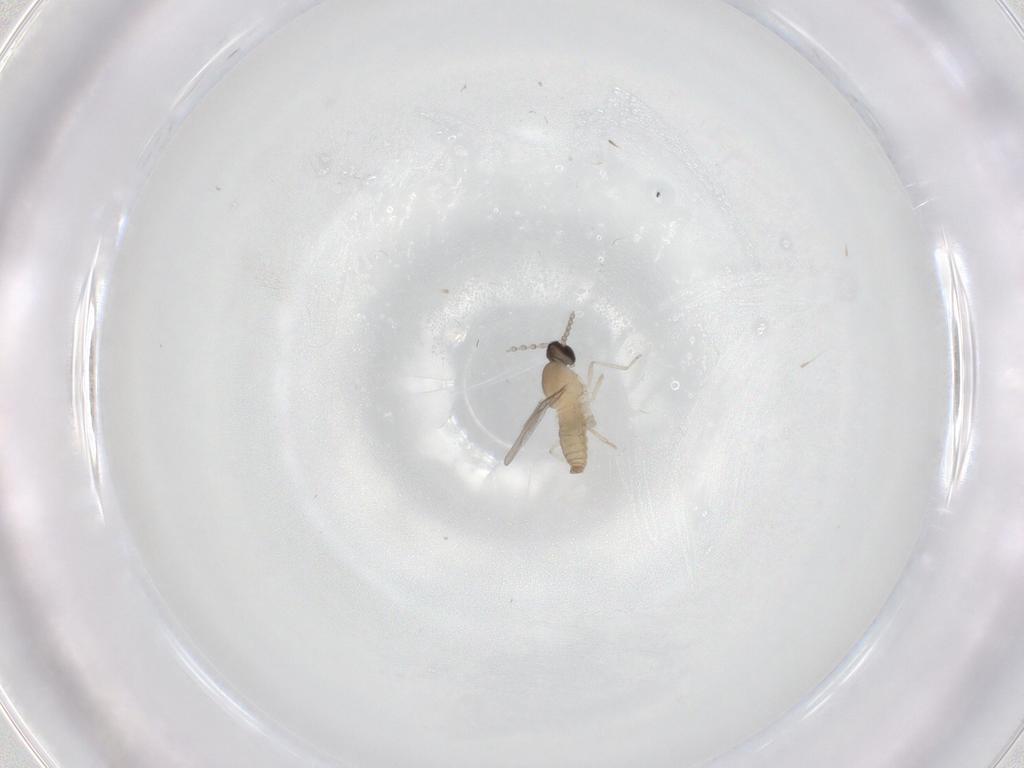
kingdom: Animalia
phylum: Arthropoda
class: Insecta
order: Diptera
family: Cecidomyiidae
